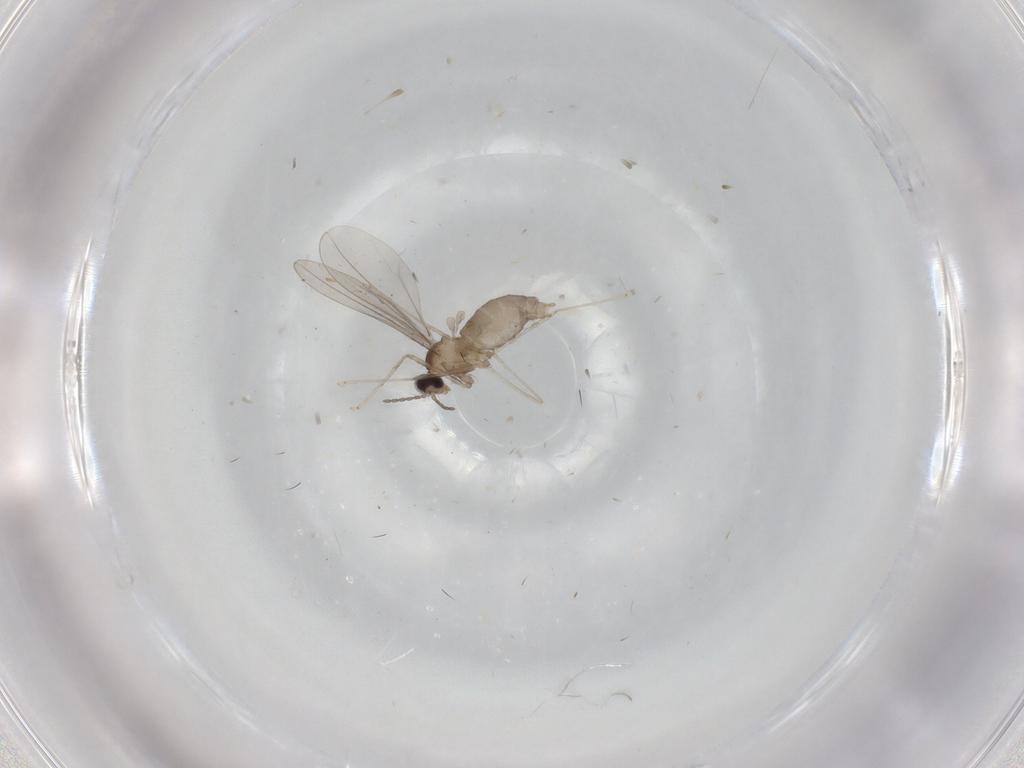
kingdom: Animalia
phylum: Arthropoda
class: Insecta
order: Diptera
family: Cecidomyiidae
